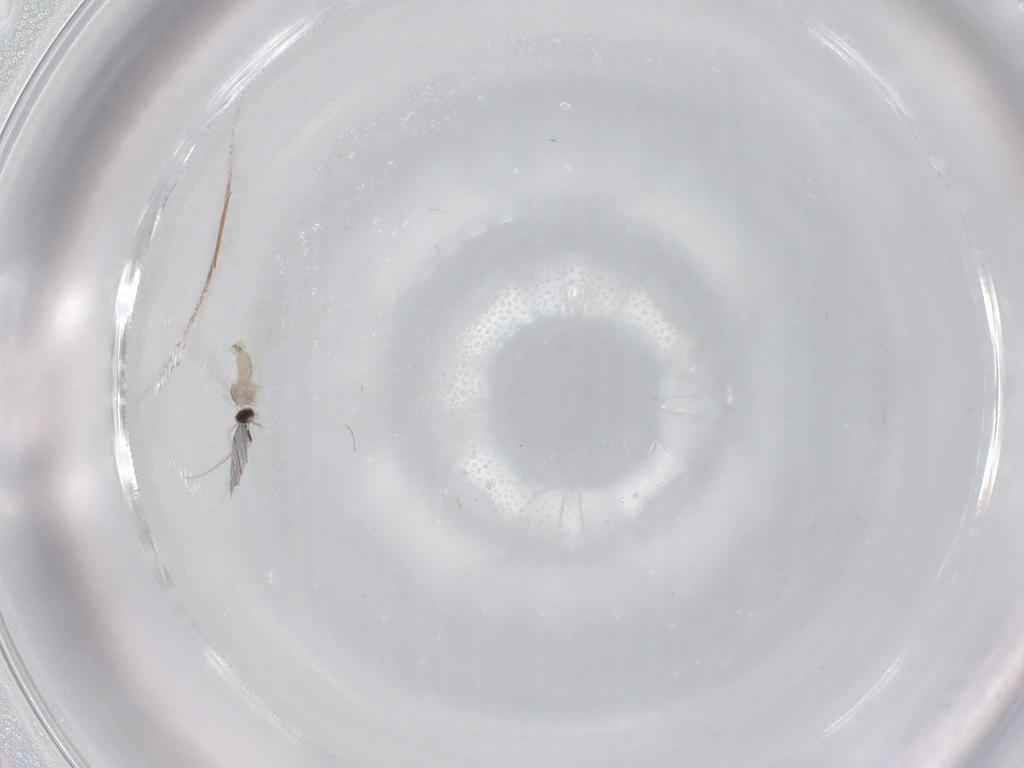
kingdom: Animalia
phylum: Arthropoda
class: Insecta
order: Diptera
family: Cecidomyiidae
